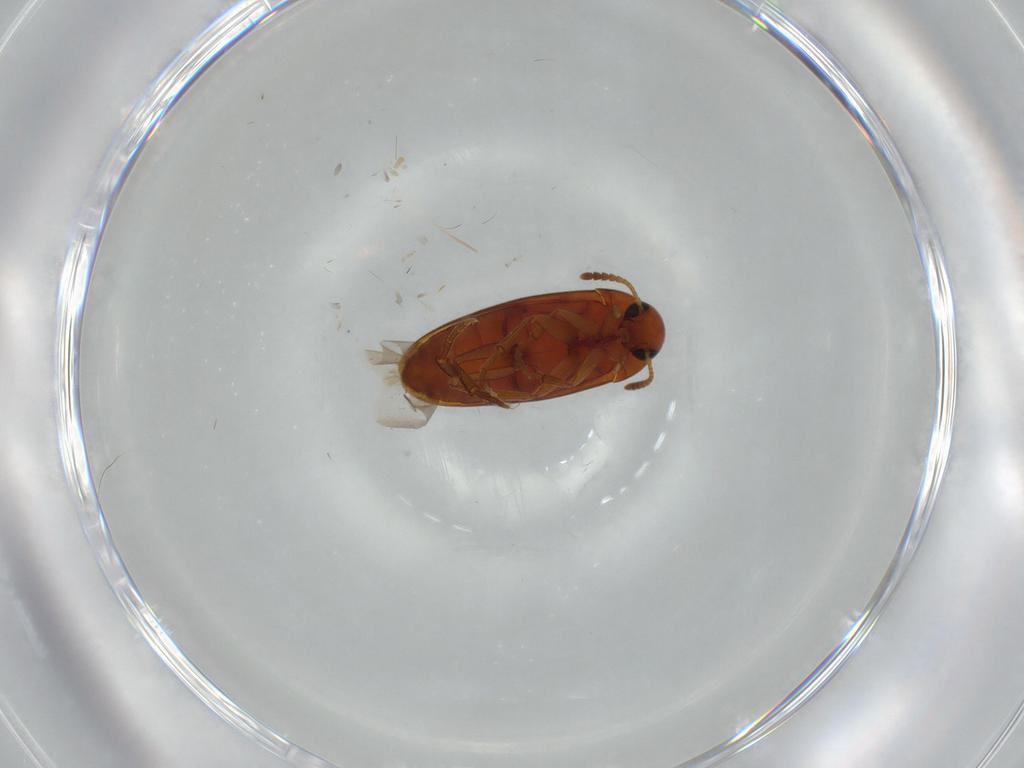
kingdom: Animalia
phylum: Arthropoda
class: Insecta
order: Coleoptera
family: Scraptiidae
